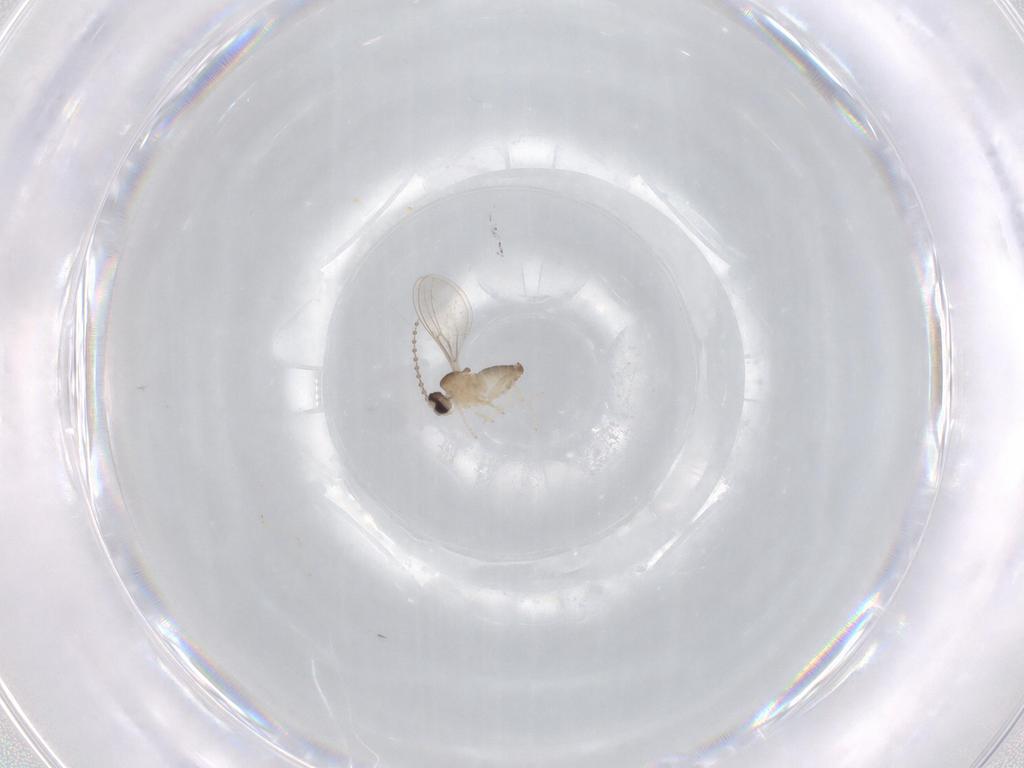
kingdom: Animalia
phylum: Arthropoda
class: Insecta
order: Diptera
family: Cecidomyiidae
